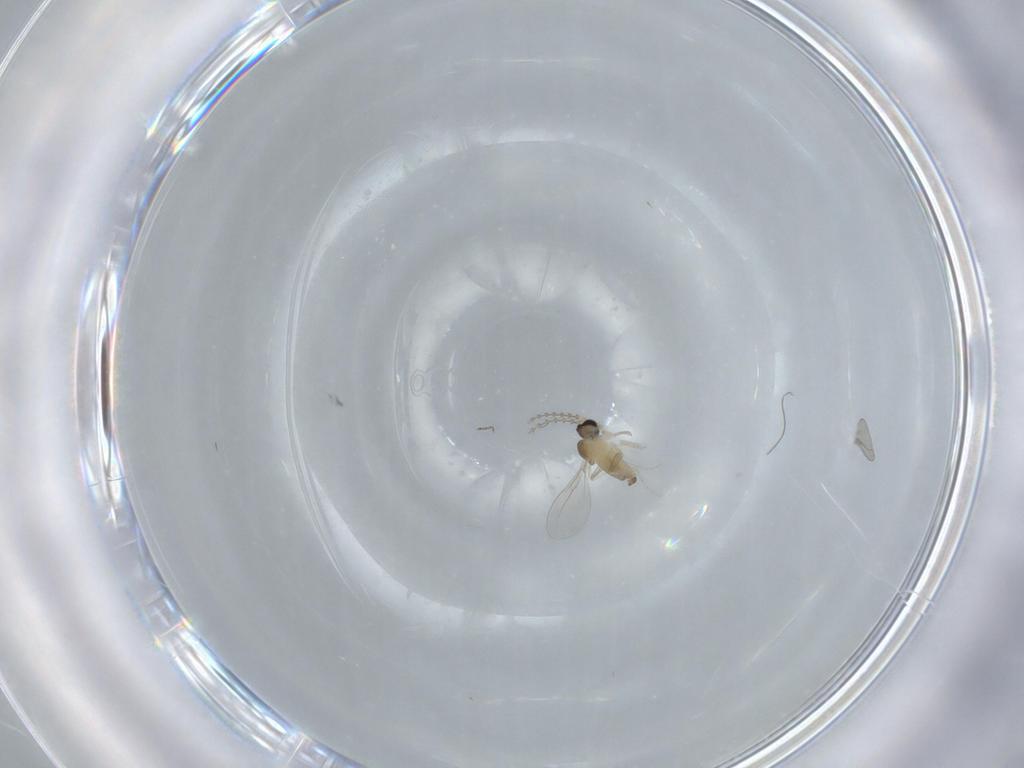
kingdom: Animalia
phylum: Arthropoda
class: Insecta
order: Diptera
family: Cecidomyiidae
